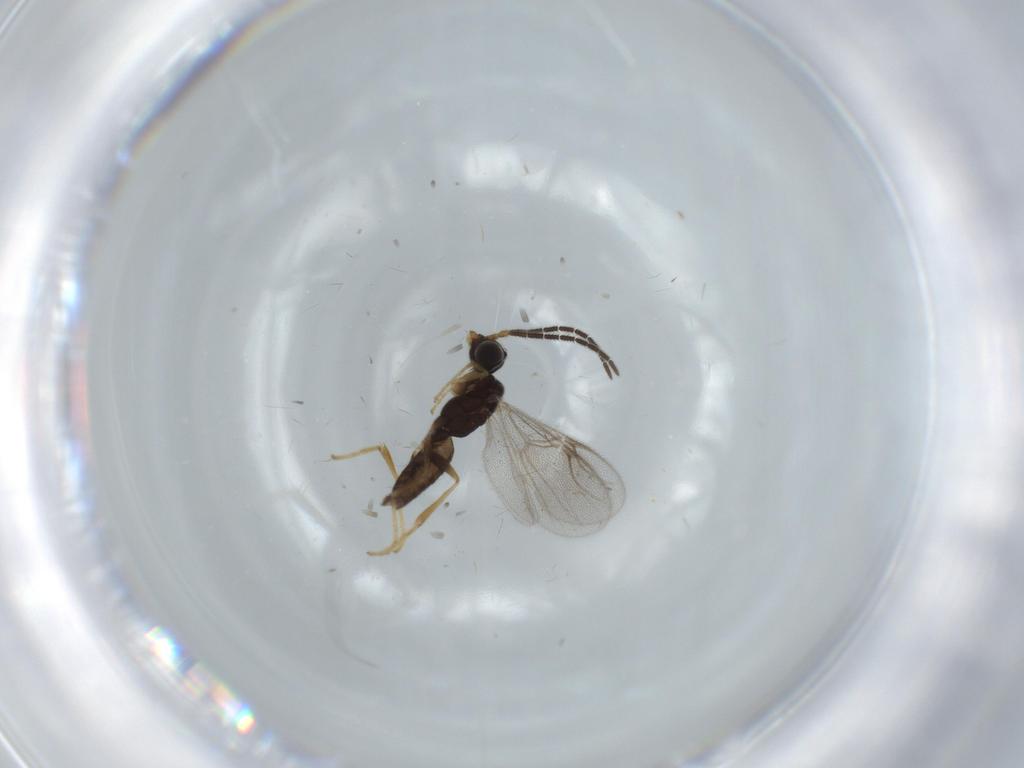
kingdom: Animalia
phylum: Arthropoda
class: Insecta
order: Hymenoptera
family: Dryinidae
